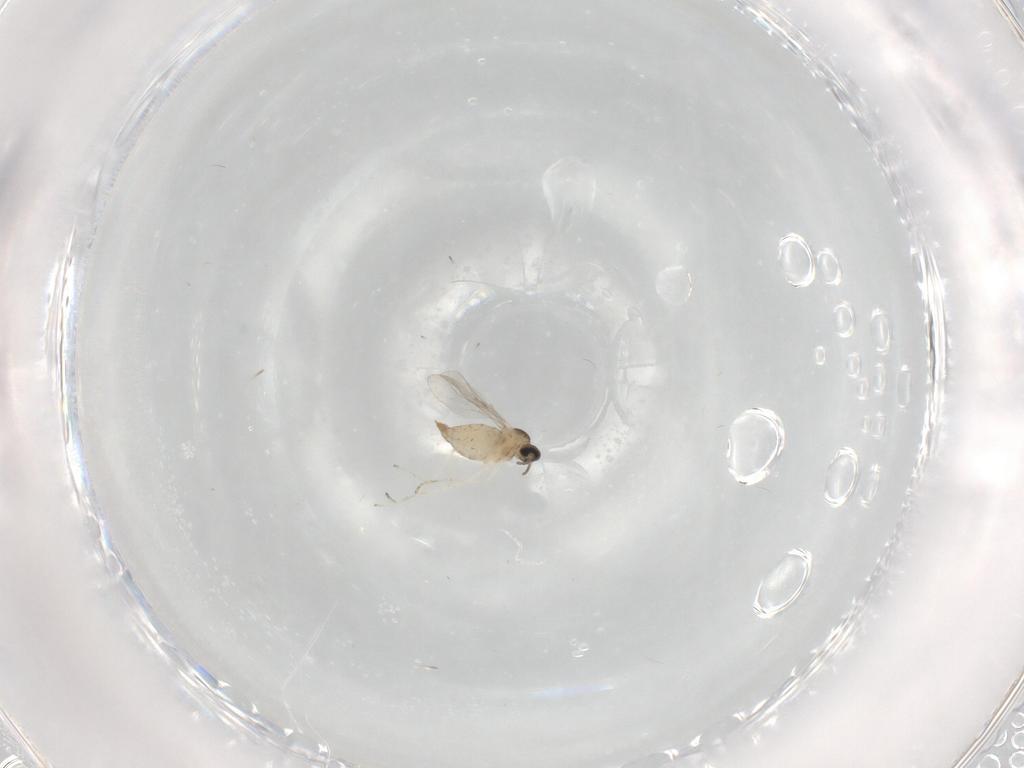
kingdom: Animalia
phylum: Arthropoda
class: Insecta
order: Diptera
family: Cecidomyiidae
